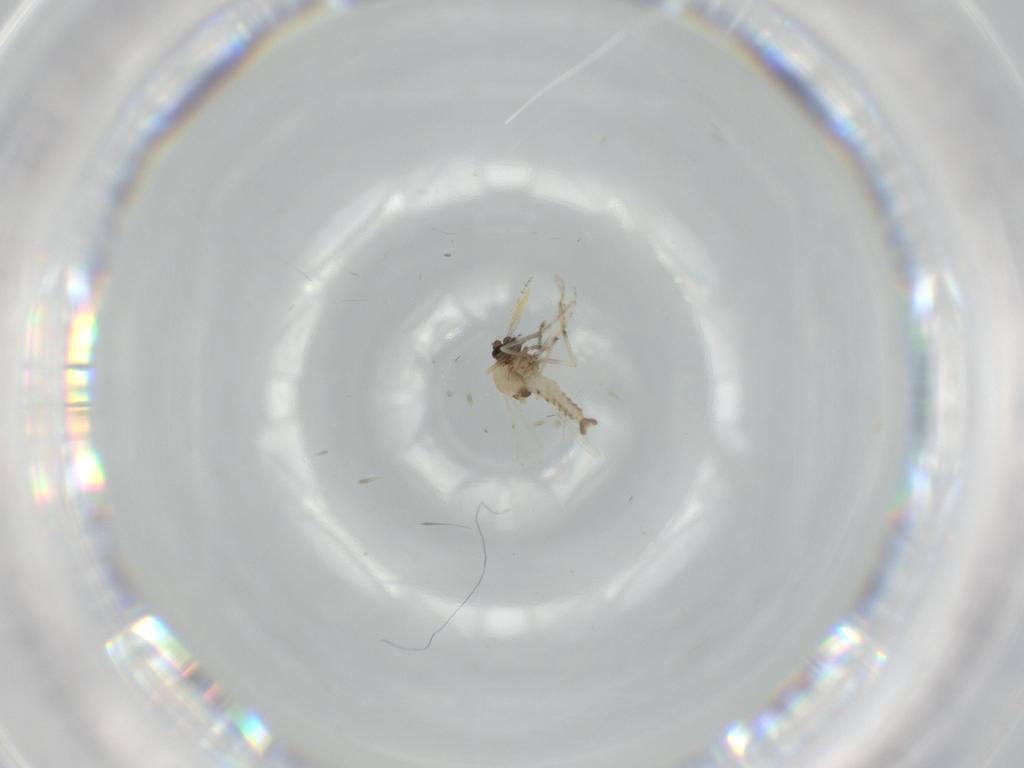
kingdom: Animalia
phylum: Arthropoda
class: Insecta
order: Diptera
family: Ceratopogonidae
